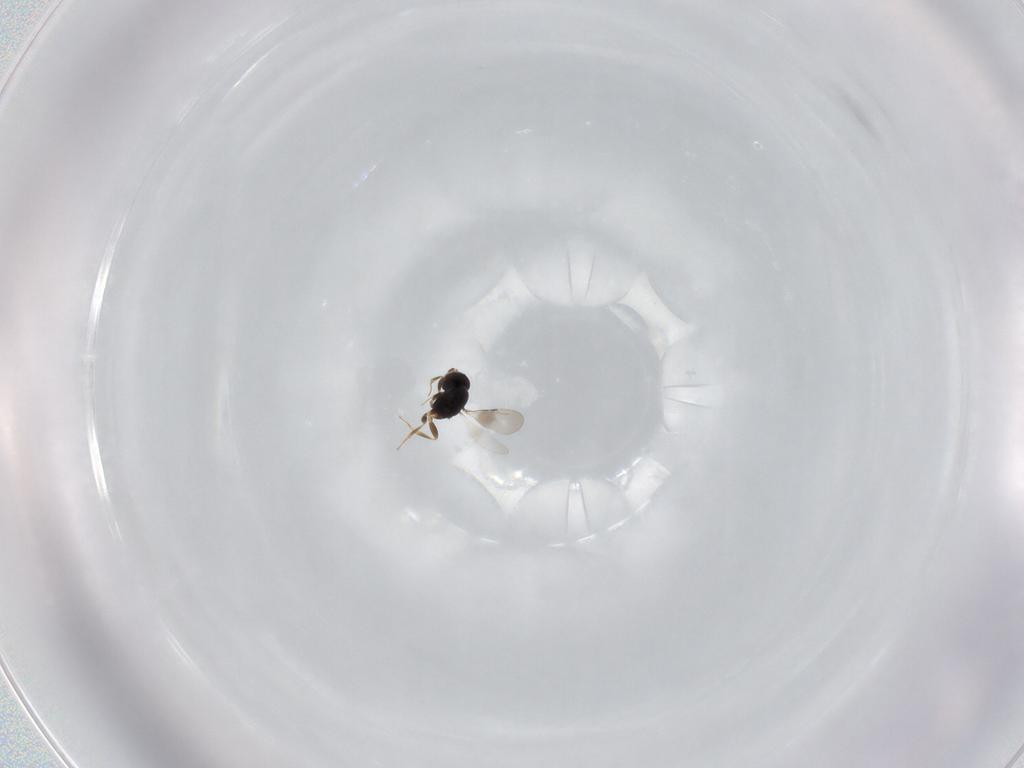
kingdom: Animalia
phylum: Arthropoda
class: Insecta
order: Hymenoptera
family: Vespidae
